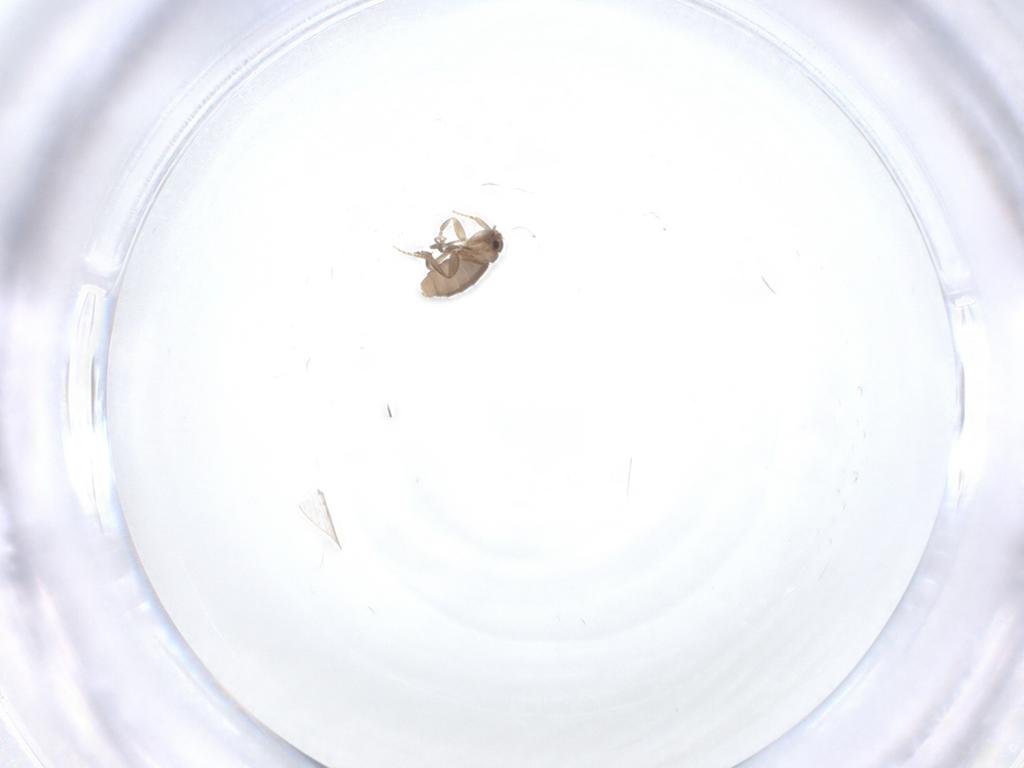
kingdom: Animalia
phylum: Arthropoda
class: Insecta
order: Diptera
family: Phoridae
